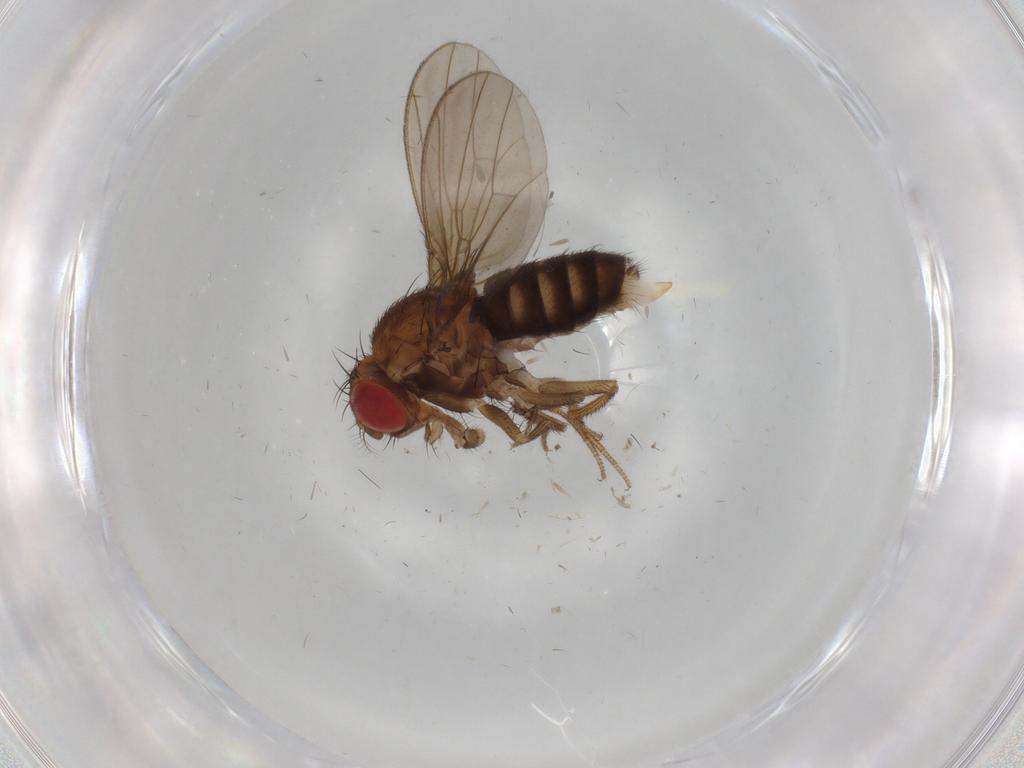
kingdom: Animalia
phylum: Arthropoda
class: Insecta
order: Diptera
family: Drosophilidae
